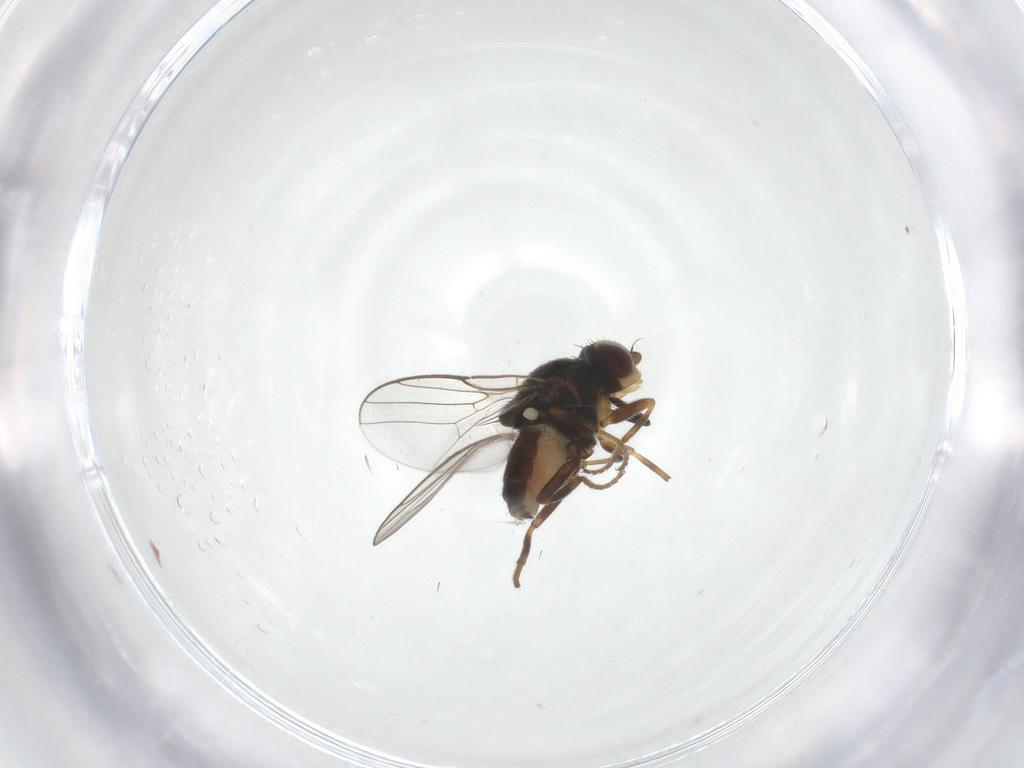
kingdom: Animalia
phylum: Arthropoda
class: Insecta
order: Diptera
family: Chloropidae
